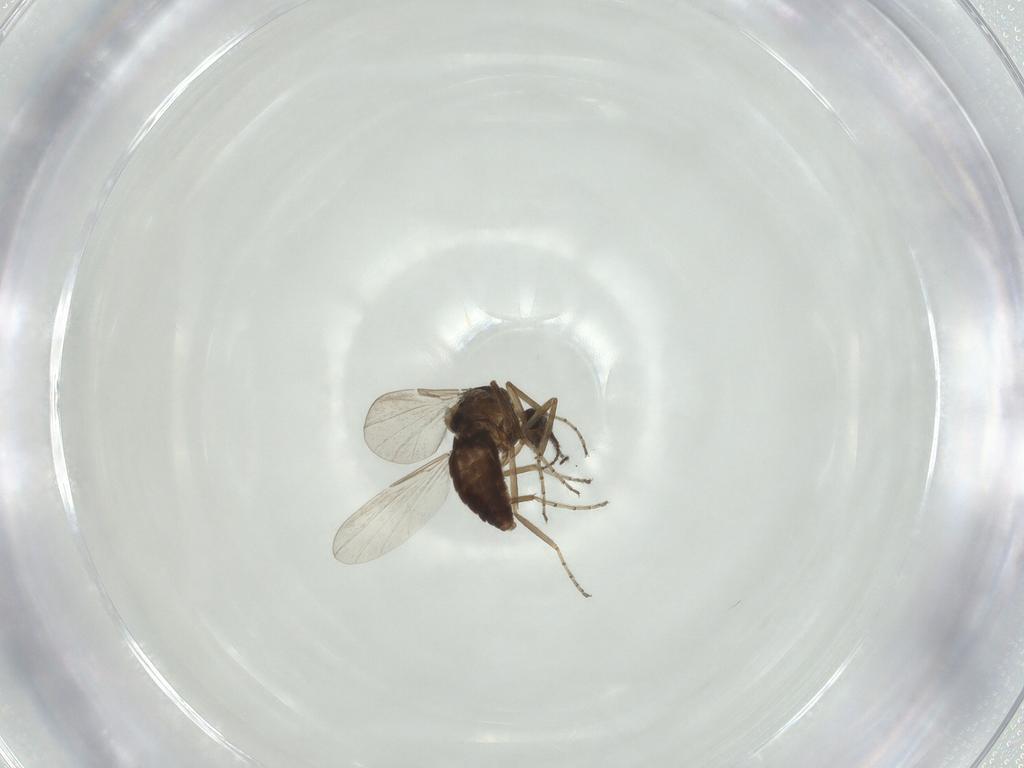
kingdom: Animalia
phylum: Arthropoda
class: Insecta
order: Diptera
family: Ceratopogonidae
